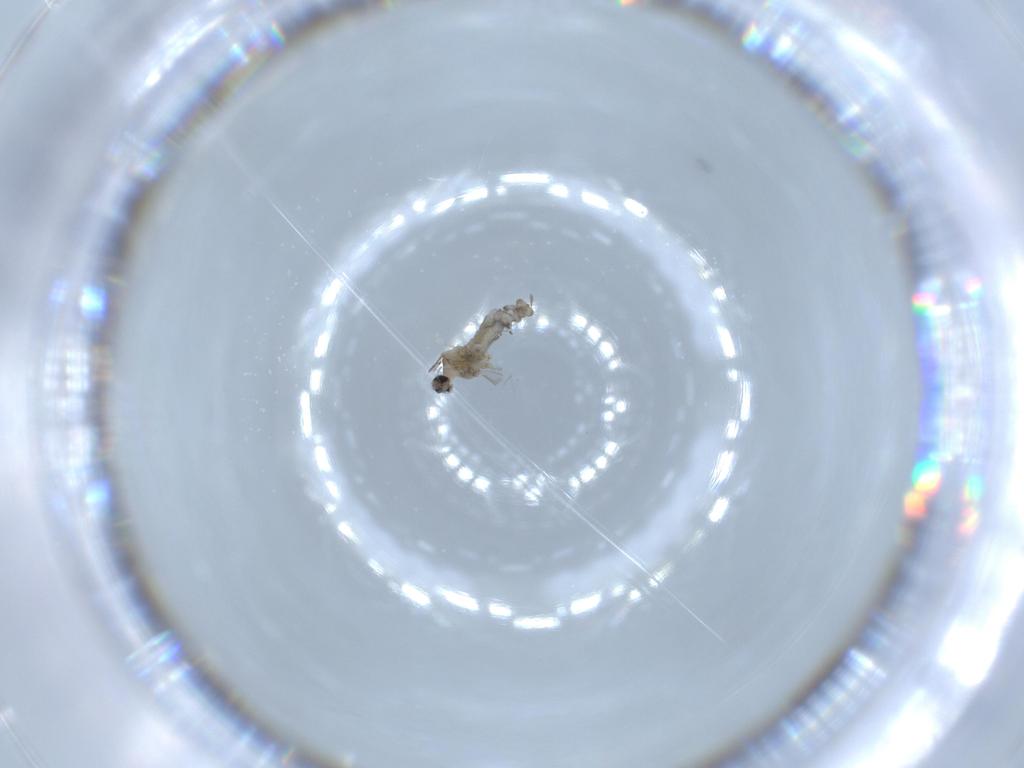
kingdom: Animalia
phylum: Arthropoda
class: Insecta
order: Diptera
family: Cecidomyiidae
